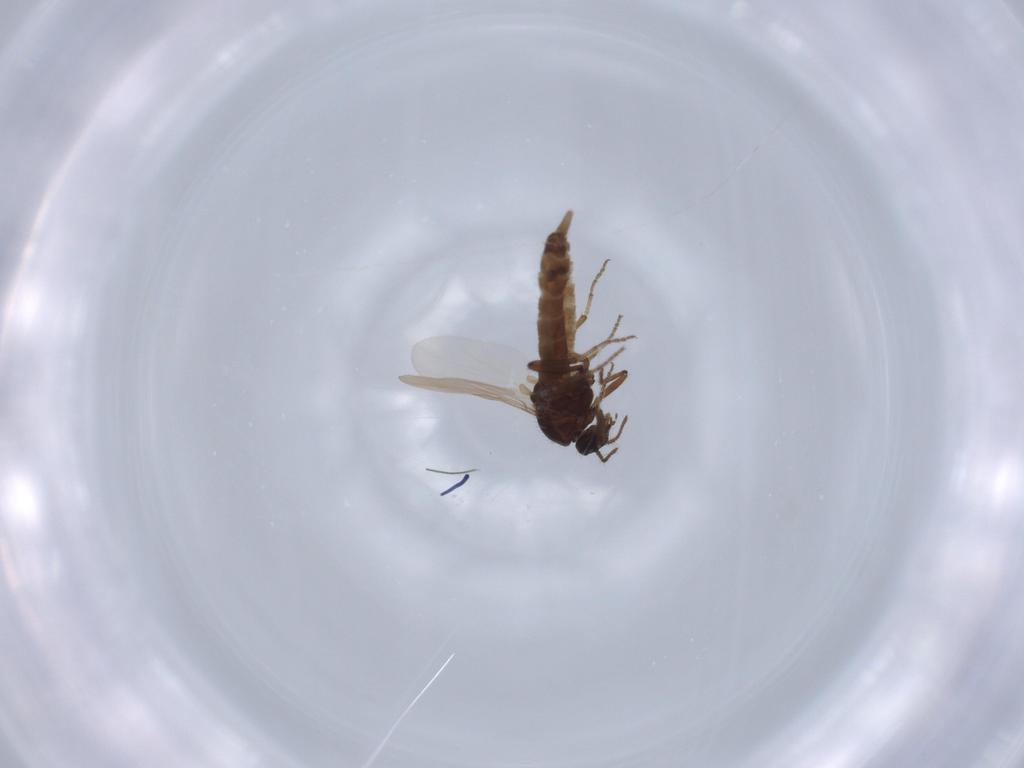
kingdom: Animalia
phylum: Arthropoda
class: Insecta
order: Diptera
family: Ceratopogonidae
